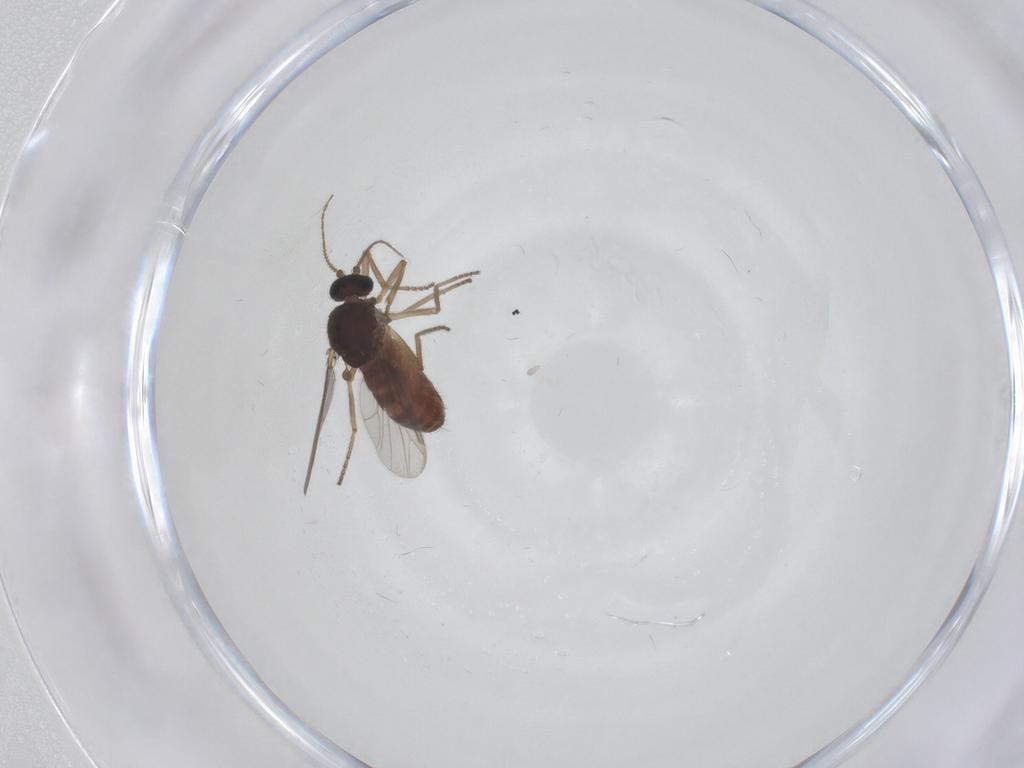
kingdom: Animalia
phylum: Arthropoda
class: Insecta
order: Diptera
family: Ceratopogonidae
